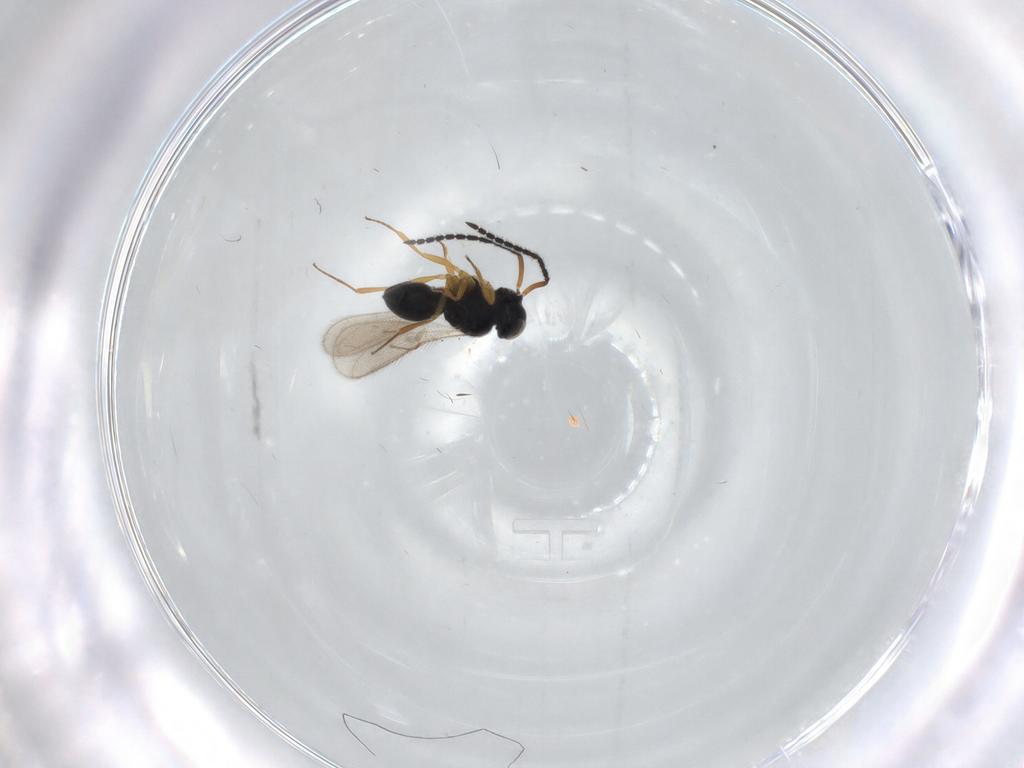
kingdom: Animalia
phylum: Arthropoda
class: Insecta
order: Hymenoptera
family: Scelionidae
